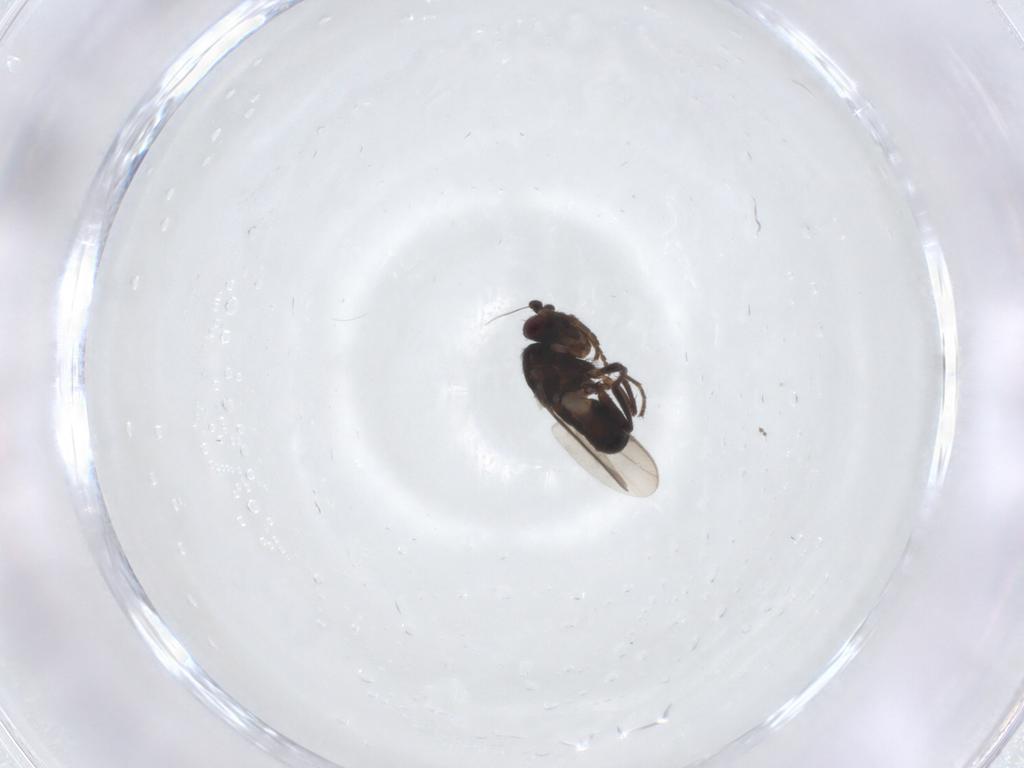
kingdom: Animalia
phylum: Arthropoda
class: Insecta
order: Diptera
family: Sphaeroceridae
